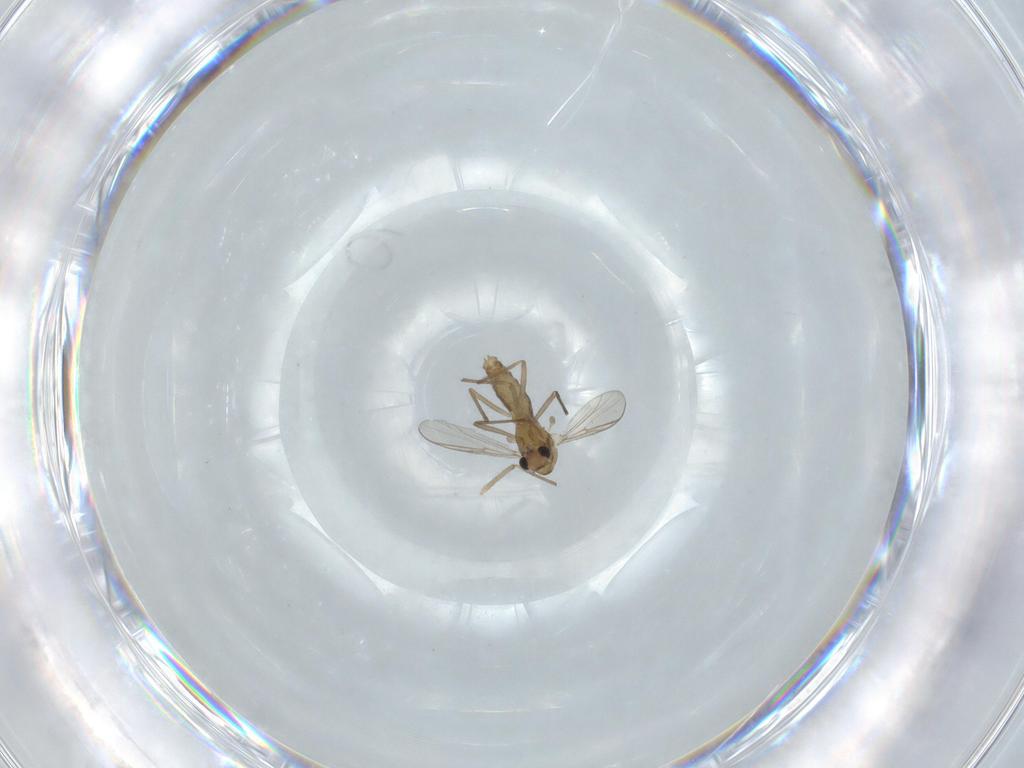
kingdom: Animalia
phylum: Arthropoda
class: Insecta
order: Diptera
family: Chironomidae
